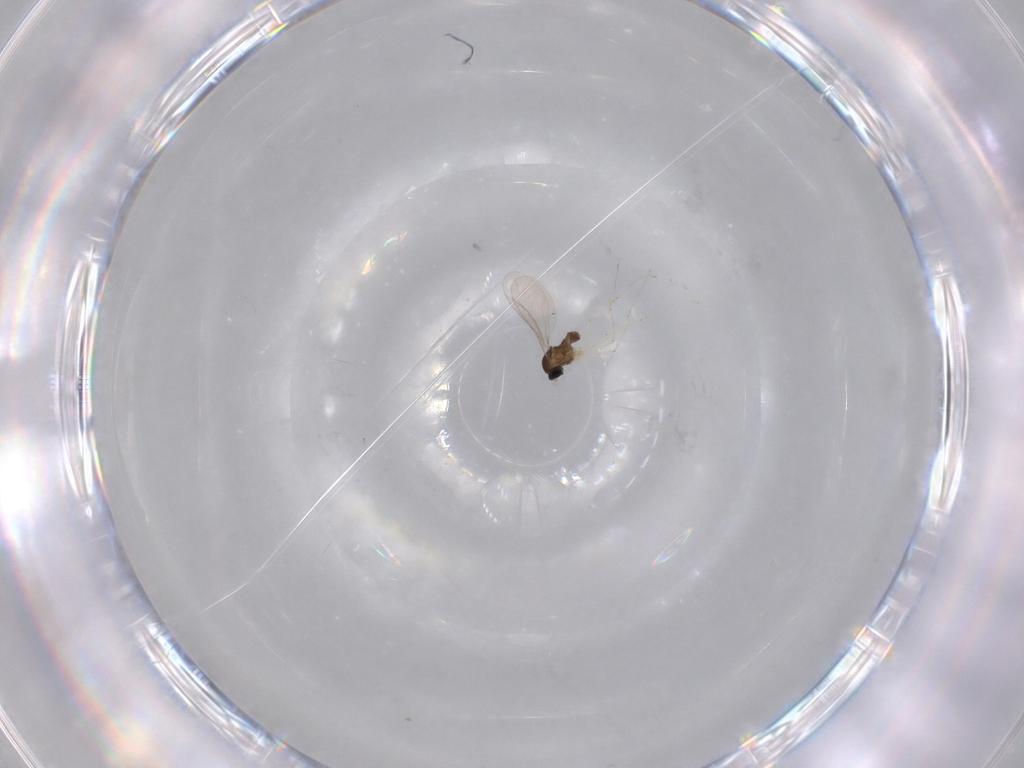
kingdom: Animalia
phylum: Arthropoda
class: Insecta
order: Diptera
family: Cecidomyiidae
